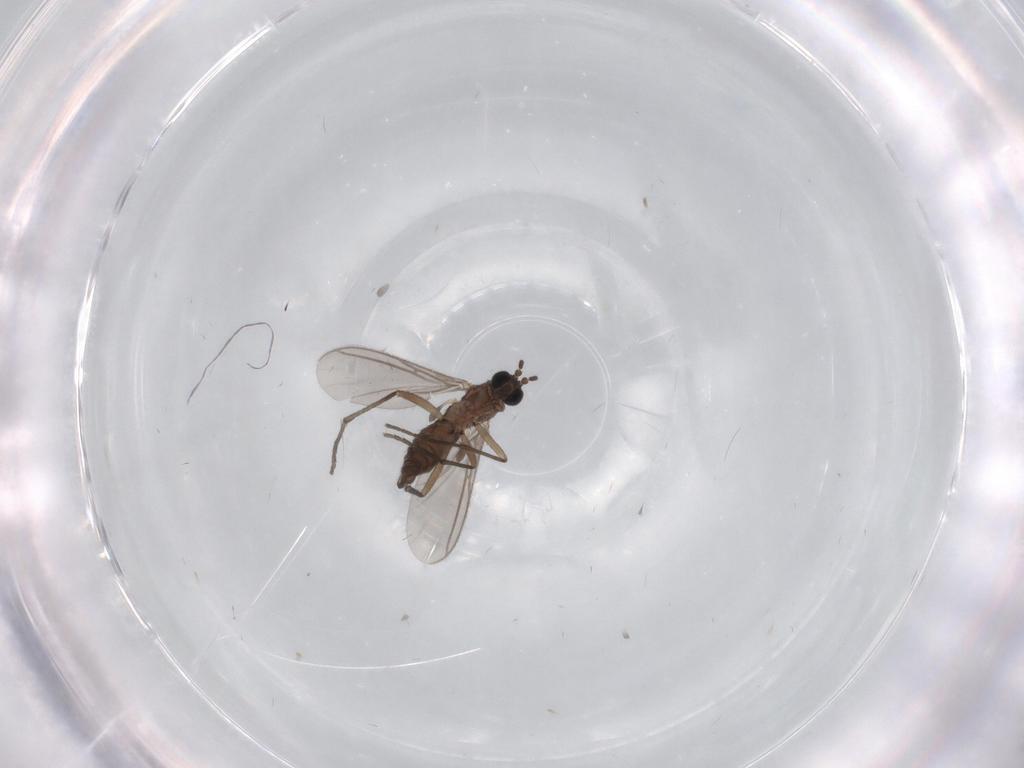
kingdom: Animalia
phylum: Arthropoda
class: Insecta
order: Diptera
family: Sciaridae
